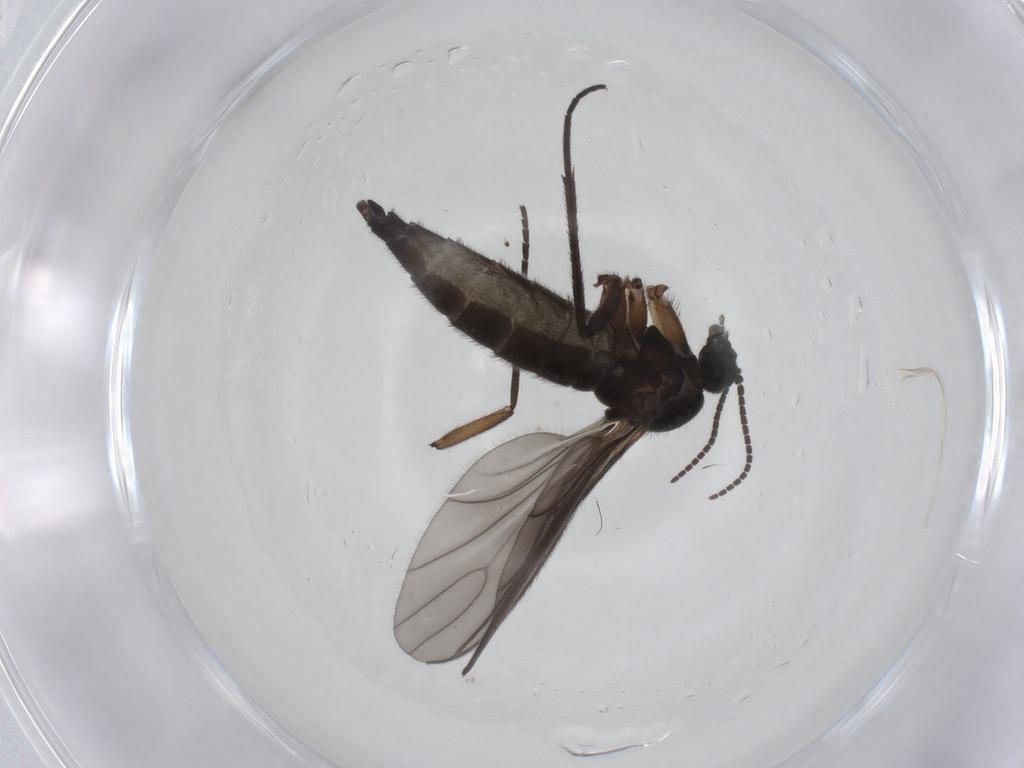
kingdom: Animalia
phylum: Arthropoda
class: Insecta
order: Diptera
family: Sciaridae
